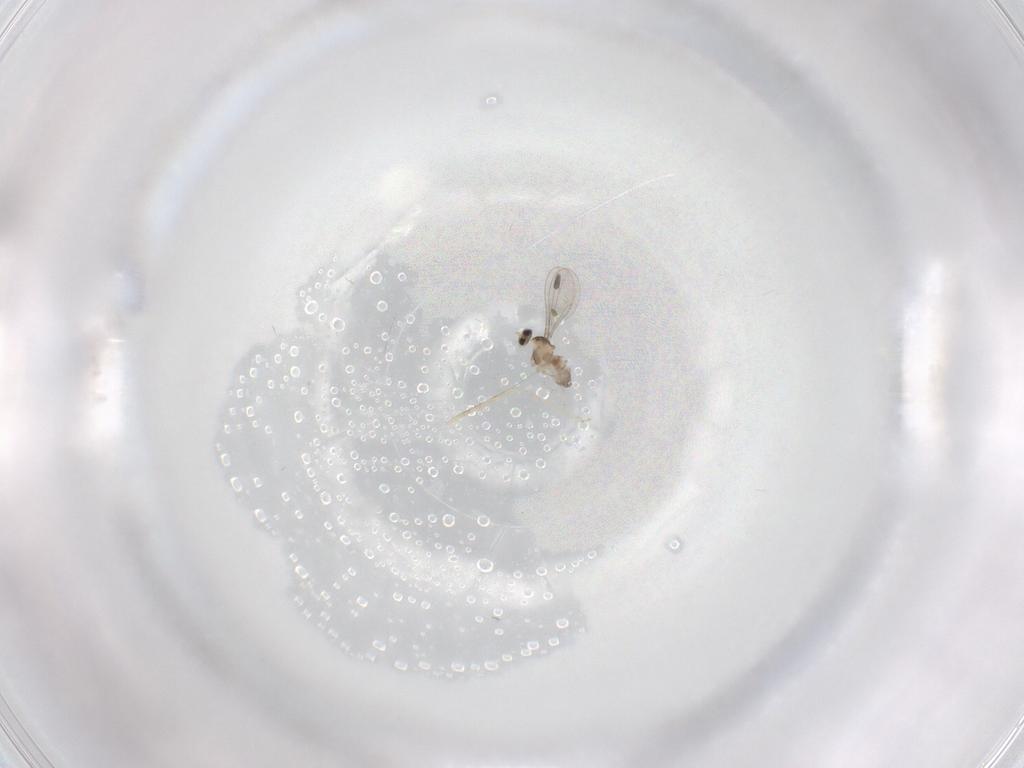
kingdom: Animalia
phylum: Arthropoda
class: Insecta
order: Diptera
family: Cecidomyiidae
